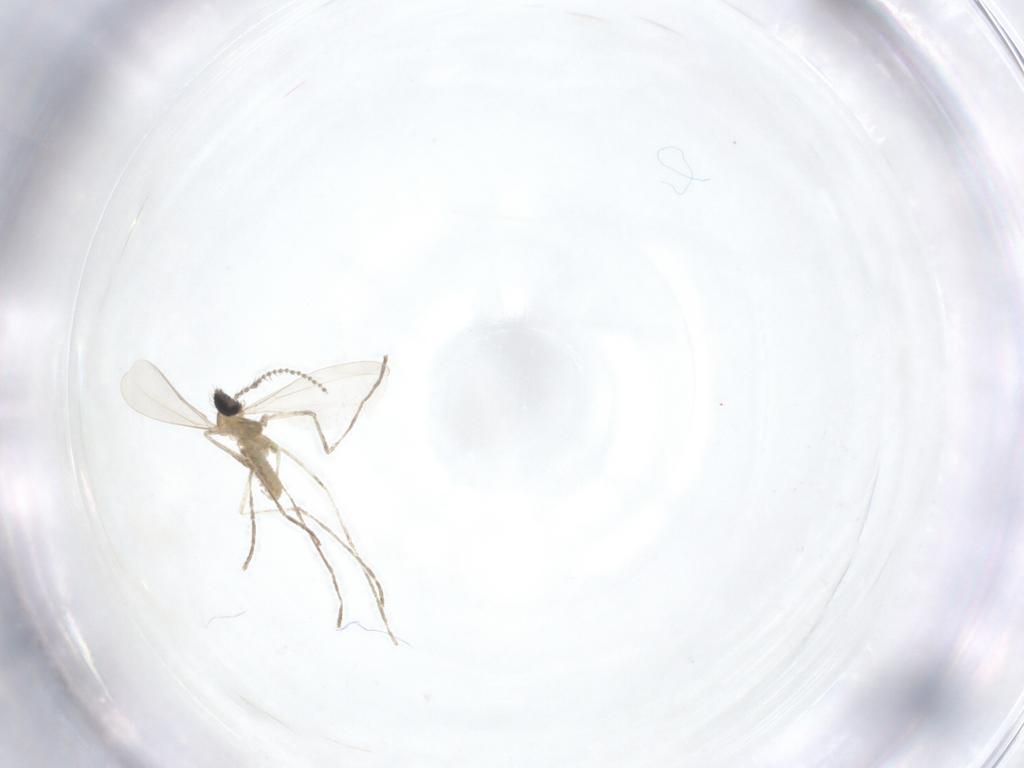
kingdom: Animalia
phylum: Arthropoda
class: Insecta
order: Diptera
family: Cecidomyiidae
